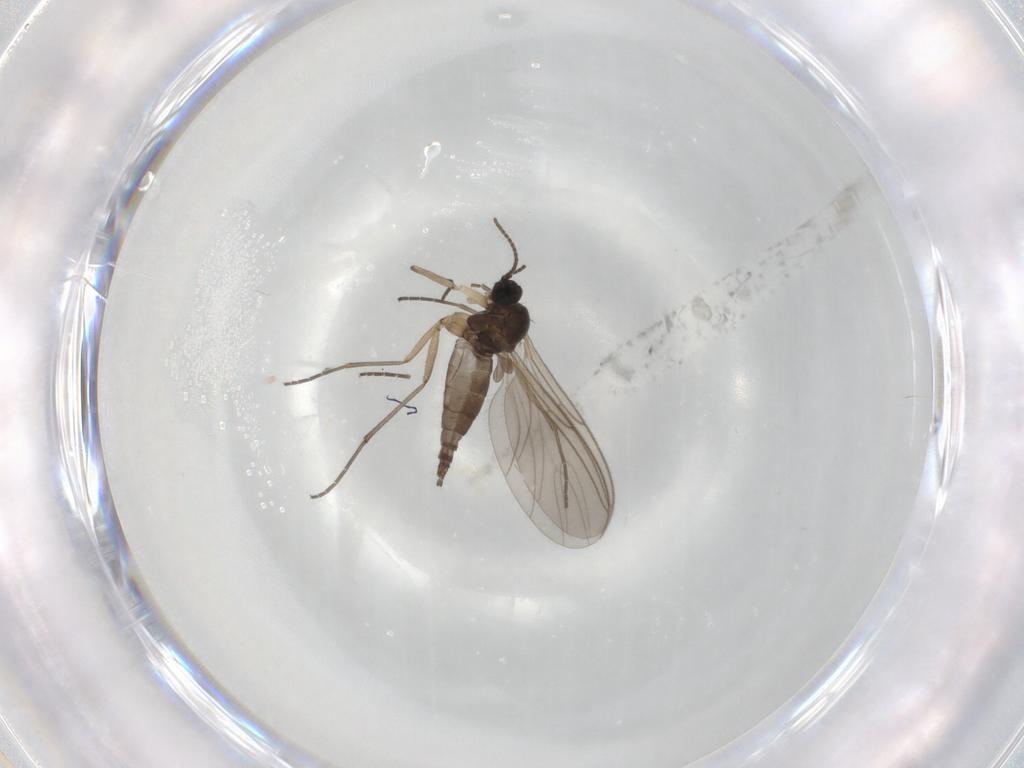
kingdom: Animalia
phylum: Arthropoda
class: Insecta
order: Diptera
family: Sciaridae
